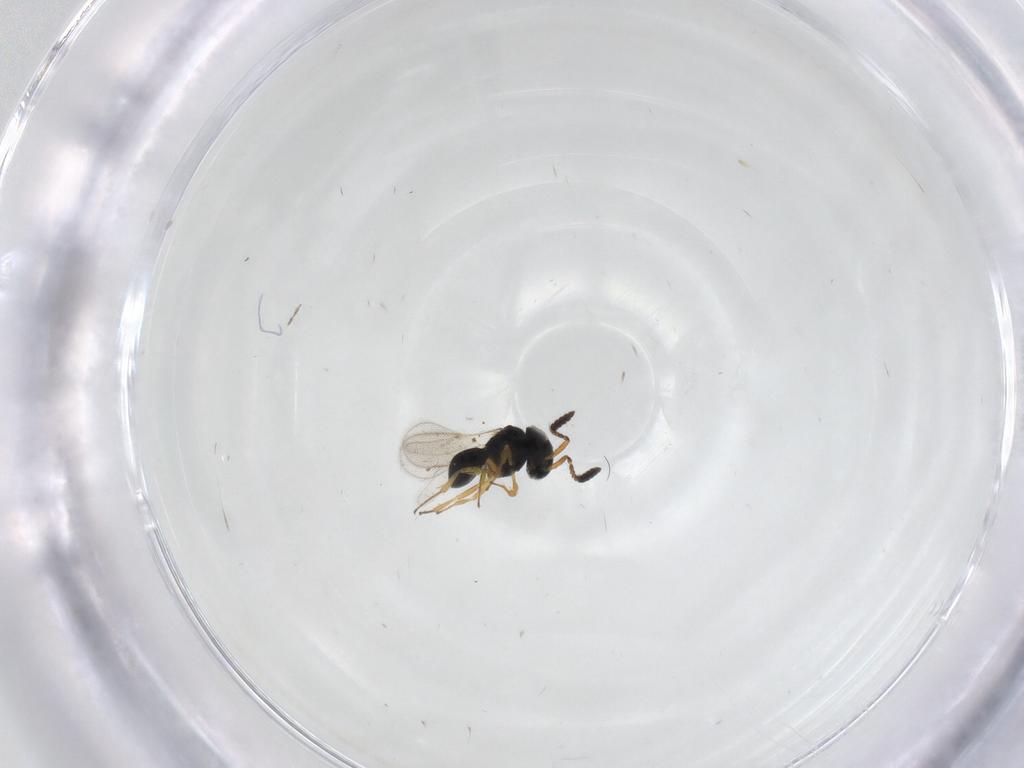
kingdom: Animalia
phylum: Arthropoda
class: Insecta
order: Hymenoptera
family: Scelionidae
